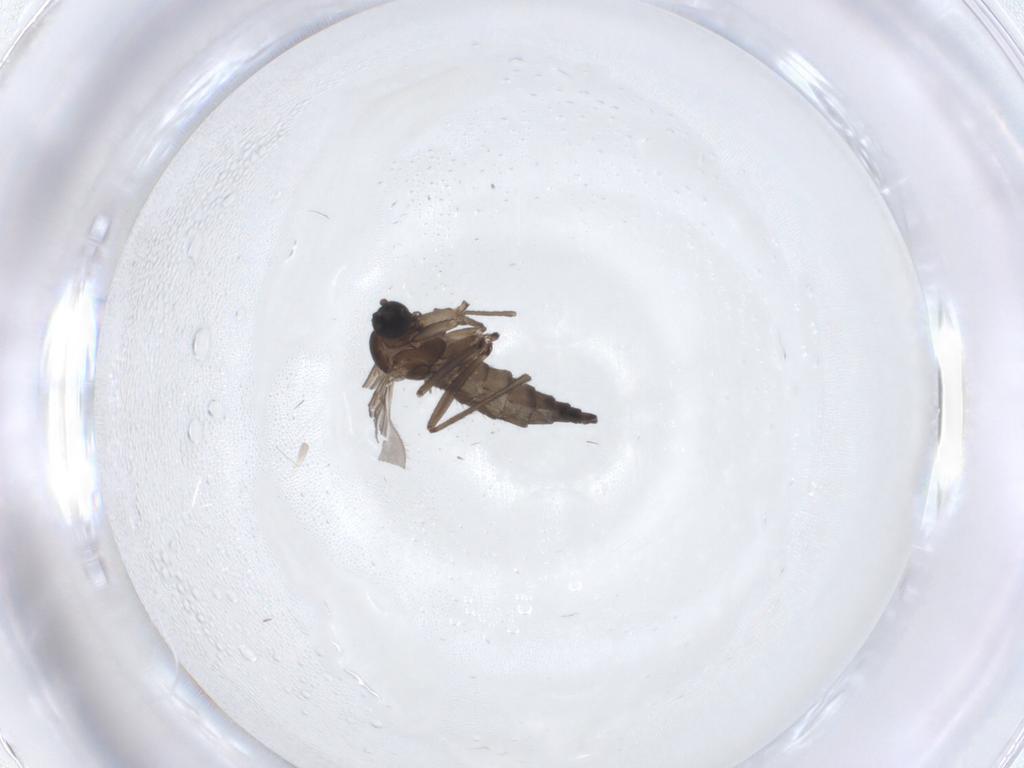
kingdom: Animalia
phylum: Arthropoda
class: Insecta
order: Diptera
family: Sciaridae
